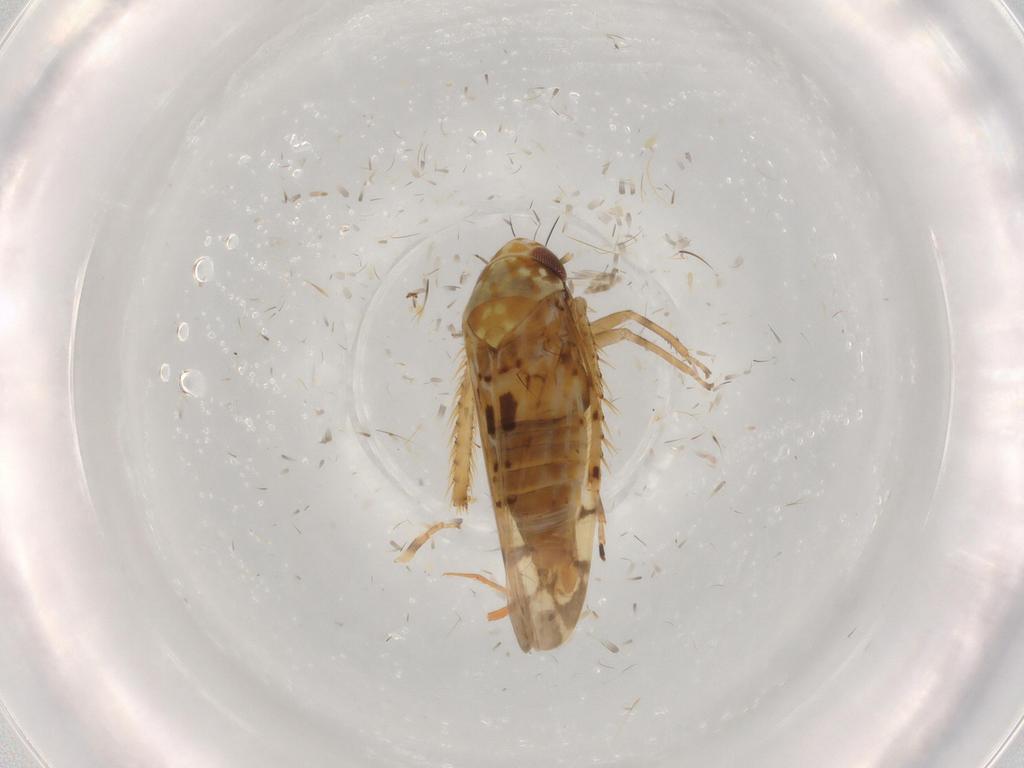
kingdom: Animalia
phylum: Arthropoda
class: Insecta
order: Hemiptera
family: Cicadellidae
